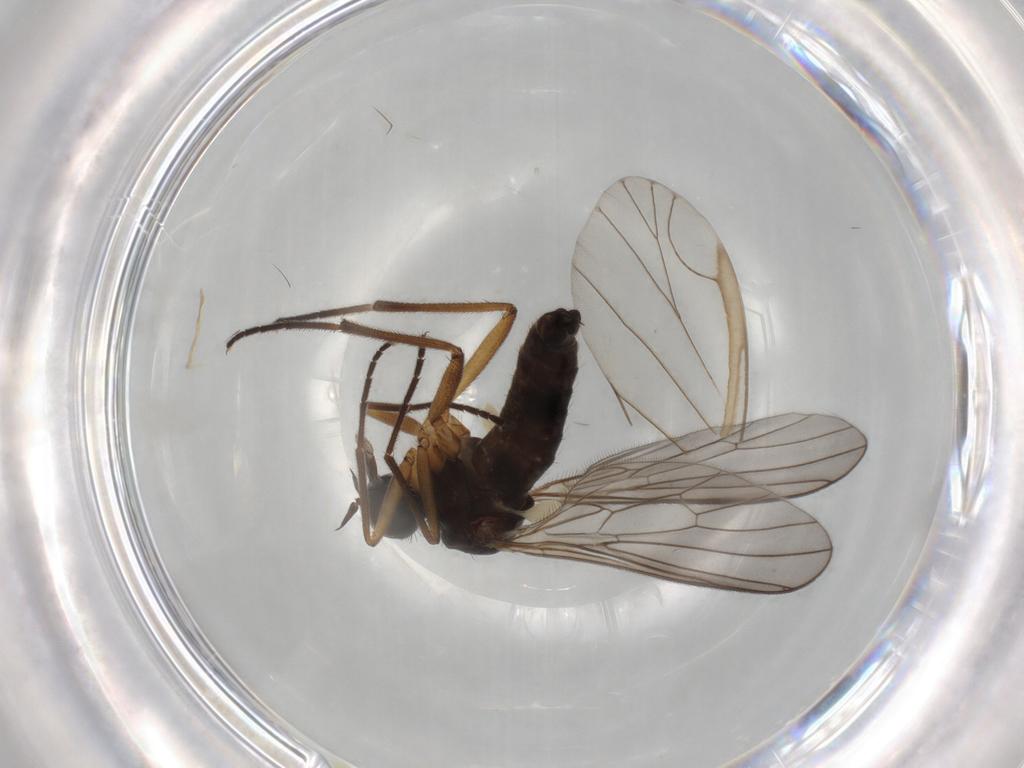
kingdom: Animalia
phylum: Arthropoda
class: Insecta
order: Diptera
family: Empididae
